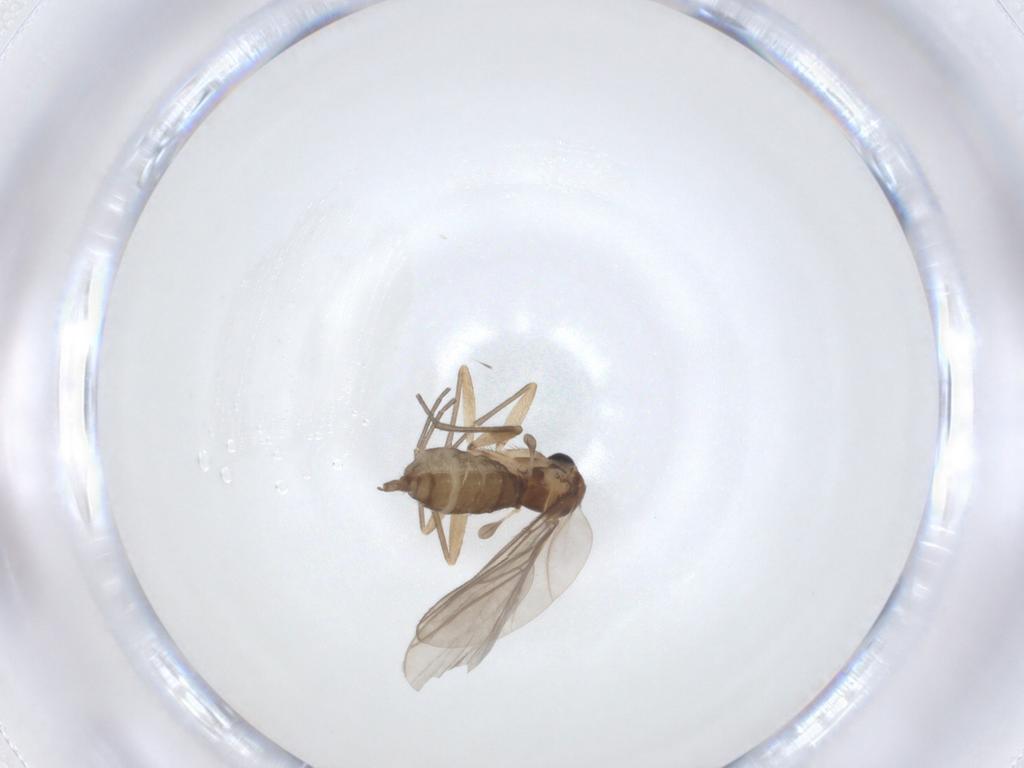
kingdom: Animalia
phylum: Arthropoda
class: Insecta
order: Diptera
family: Sciaridae
